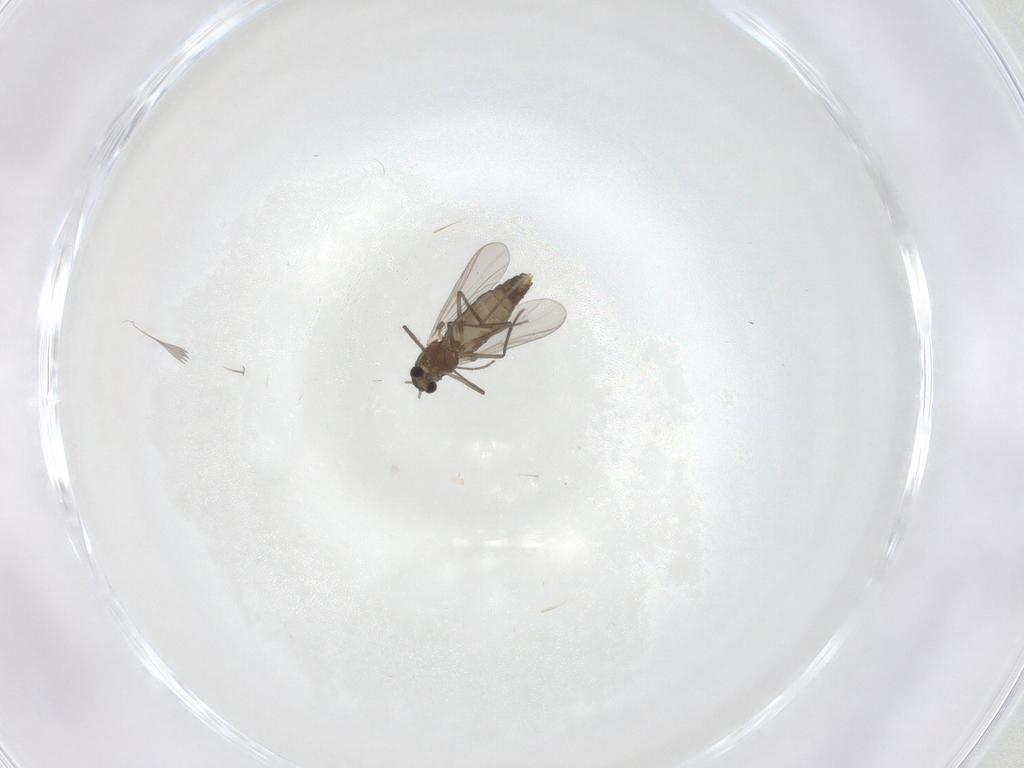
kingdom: Animalia
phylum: Arthropoda
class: Insecta
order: Diptera
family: Chironomidae
